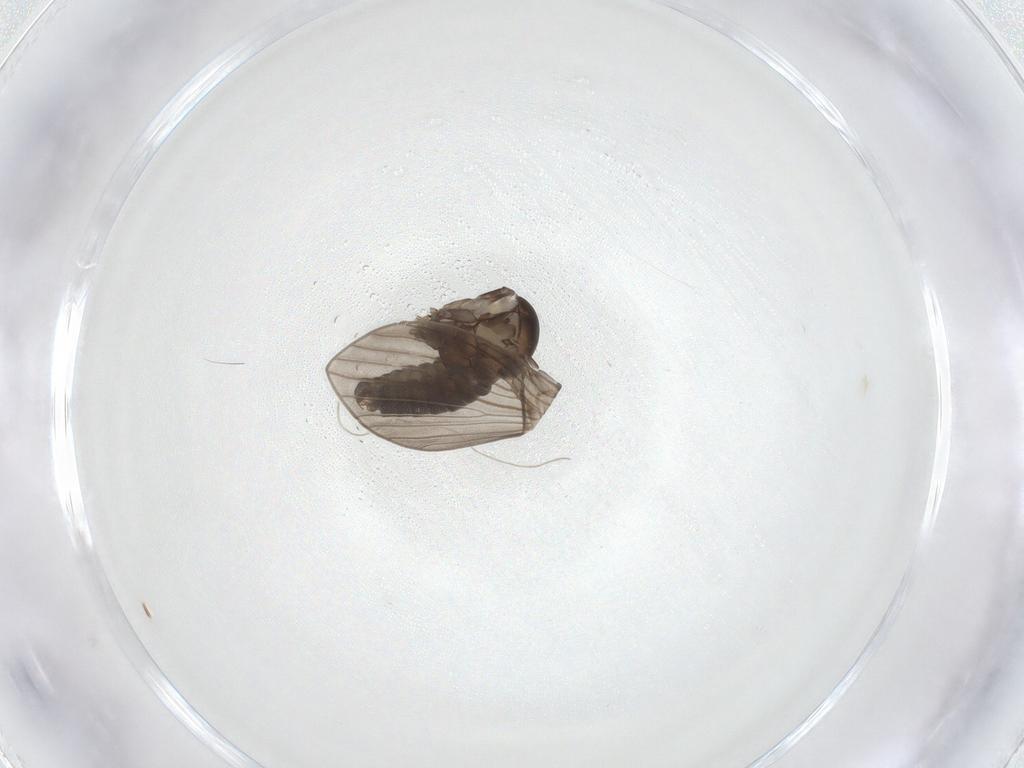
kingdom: Animalia
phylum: Arthropoda
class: Insecta
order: Diptera
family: Psychodidae
